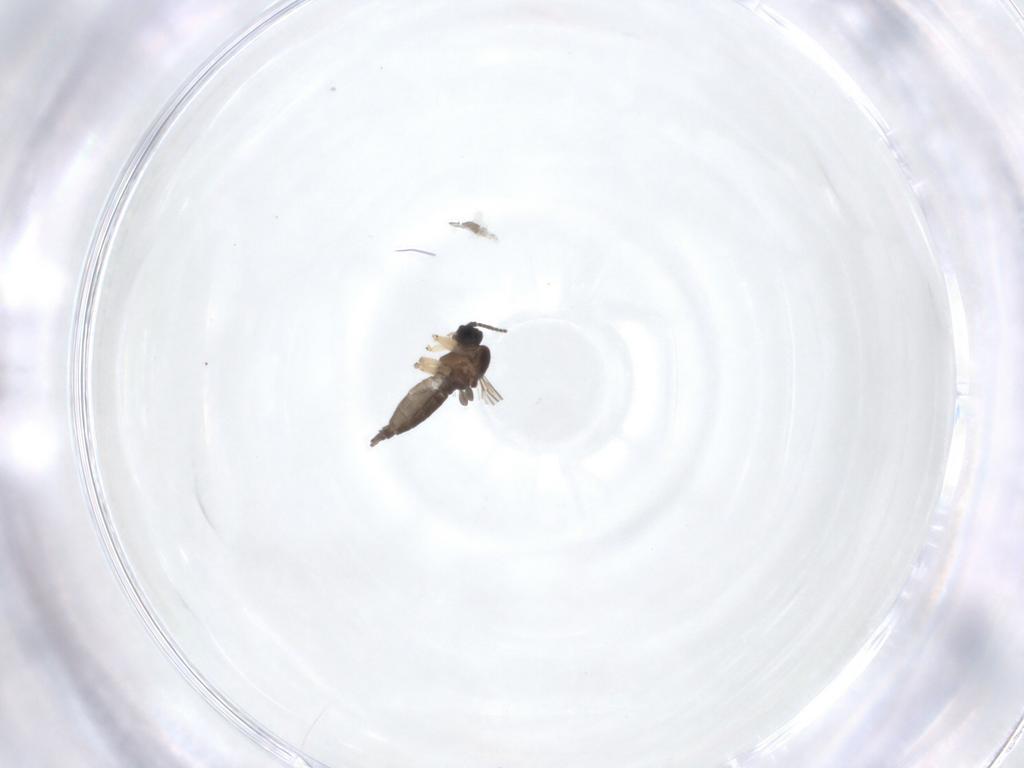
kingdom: Animalia
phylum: Arthropoda
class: Insecta
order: Diptera
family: Sciaridae
